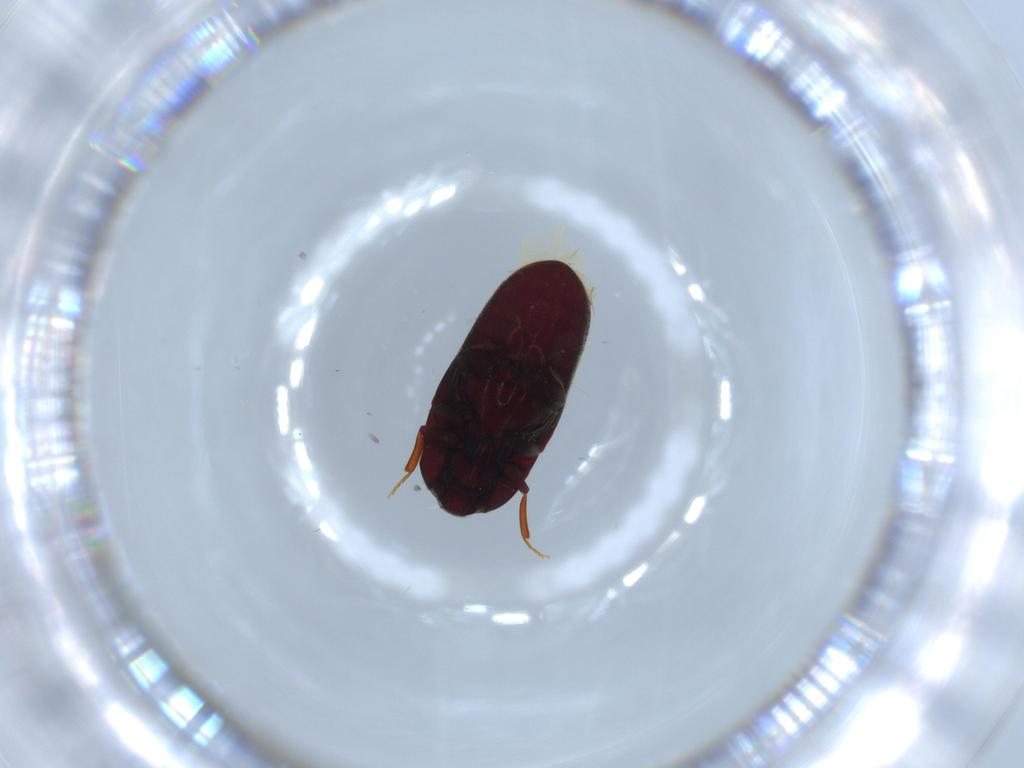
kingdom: Animalia
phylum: Arthropoda
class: Insecta
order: Coleoptera
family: Throscidae
